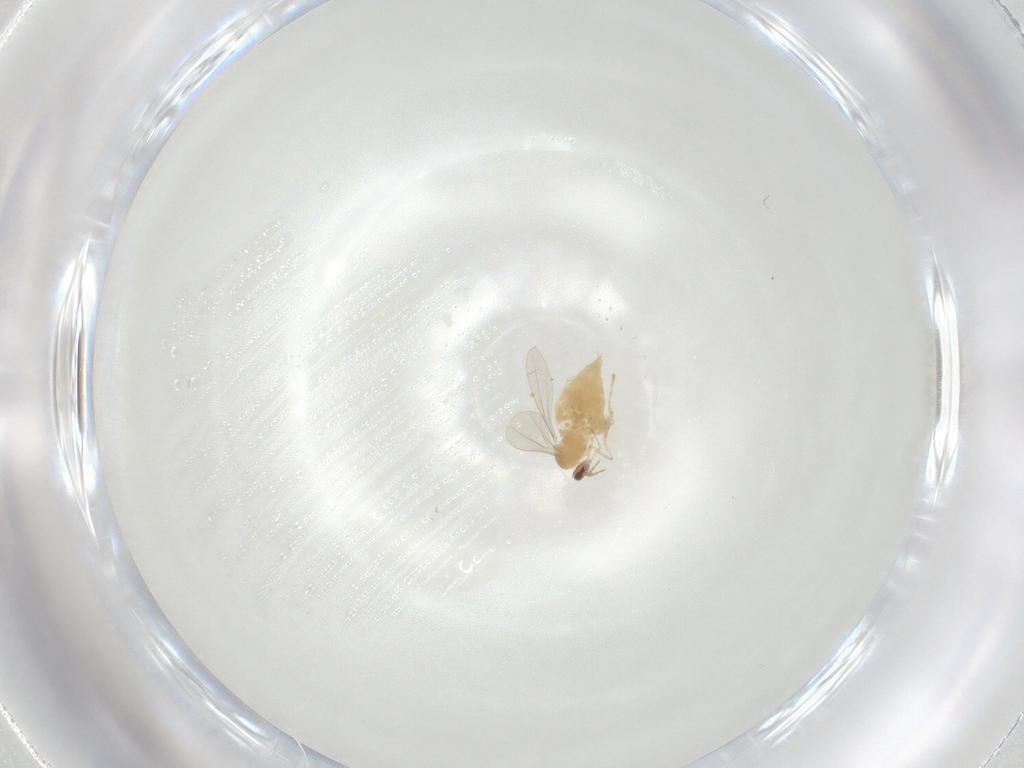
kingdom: Animalia
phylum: Arthropoda
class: Insecta
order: Diptera
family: Cecidomyiidae
